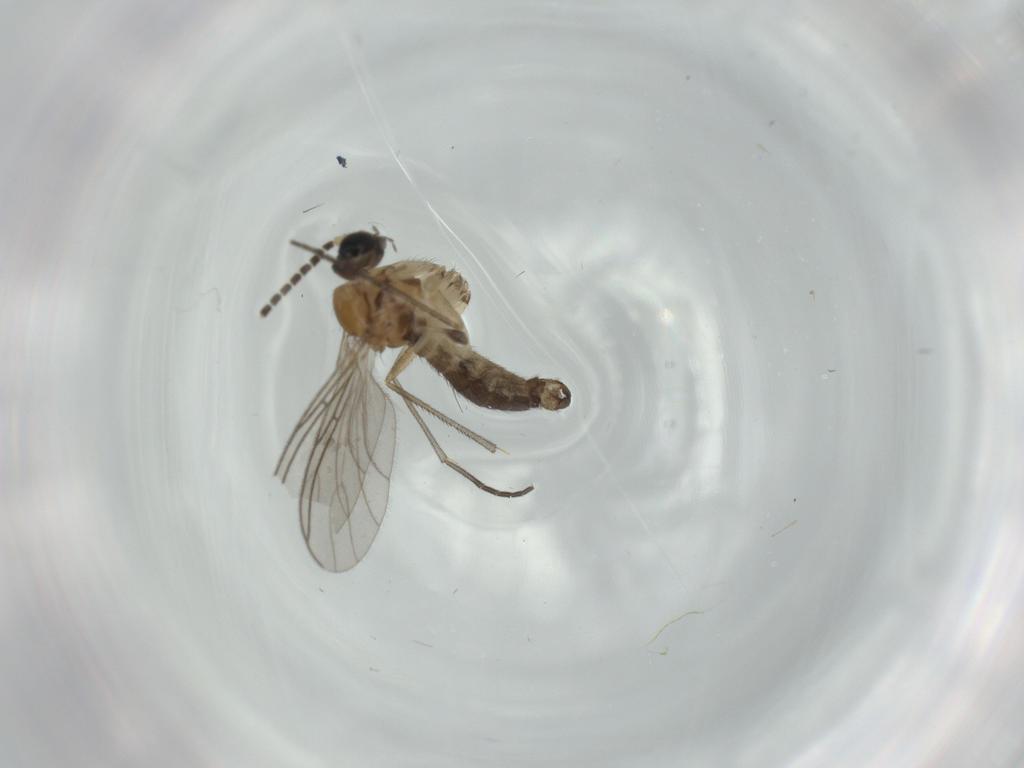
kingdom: Animalia
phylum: Arthropoda
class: Insecta
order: Diptera
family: Sciaridae
